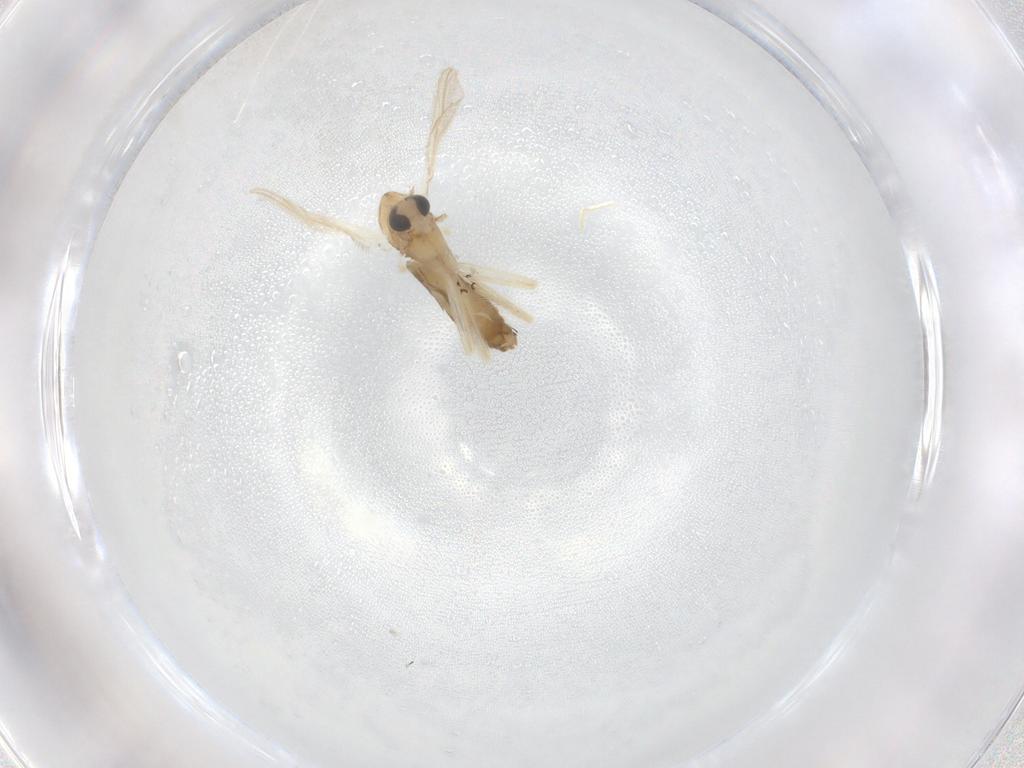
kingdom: Animalia
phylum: Arthropoda
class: Insecta
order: Diptera
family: Chironomidae
